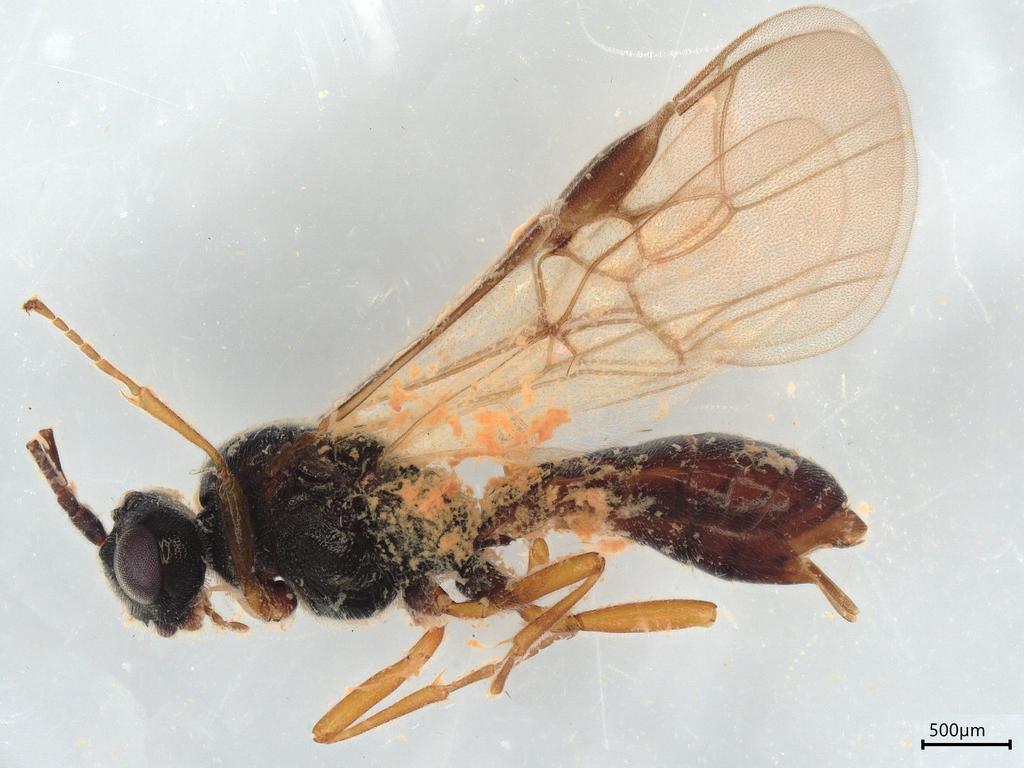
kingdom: Animalia
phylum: Arthropoda
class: Insecta
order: Hymenoptera
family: Braconidae
